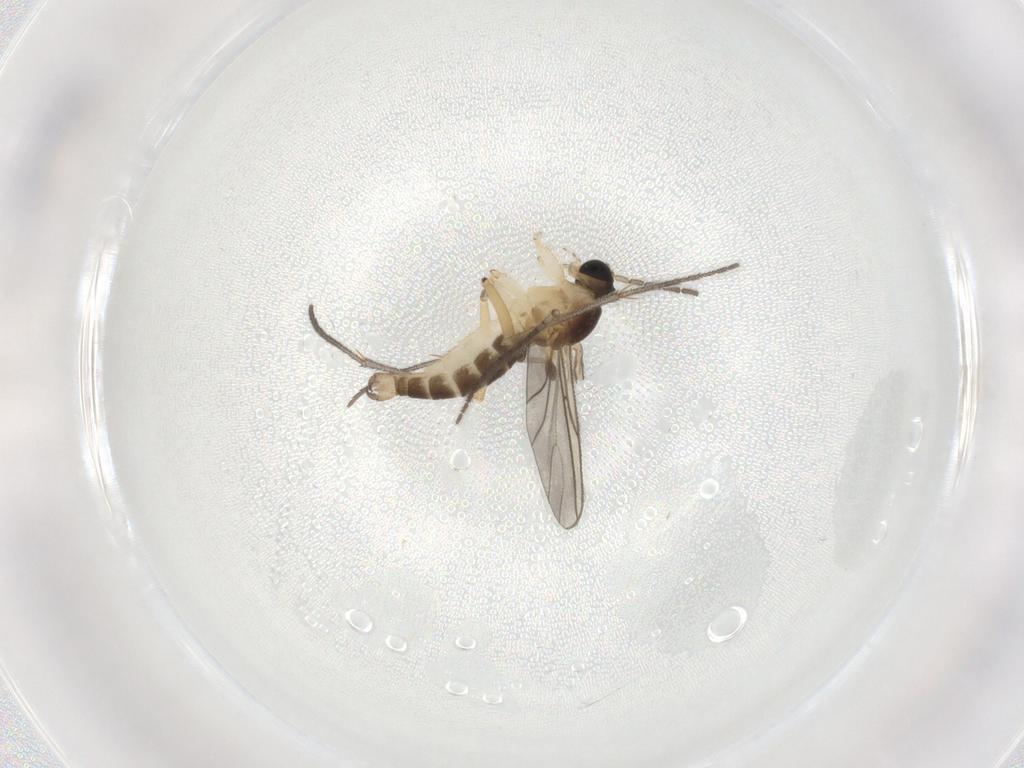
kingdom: Animalia
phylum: Arthropoda
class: Insecta
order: Diptera
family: Sciaridae
